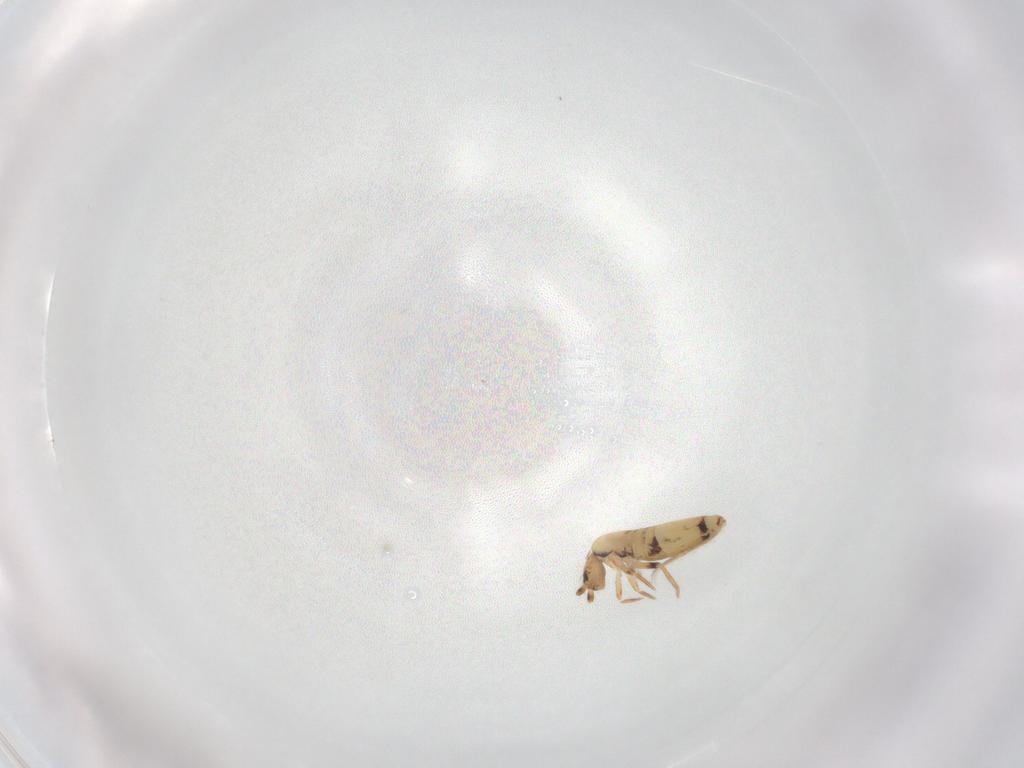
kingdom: Animalia
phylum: Arthropoda
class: Collembola
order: Entomobryomorpha
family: Entomobryidae
